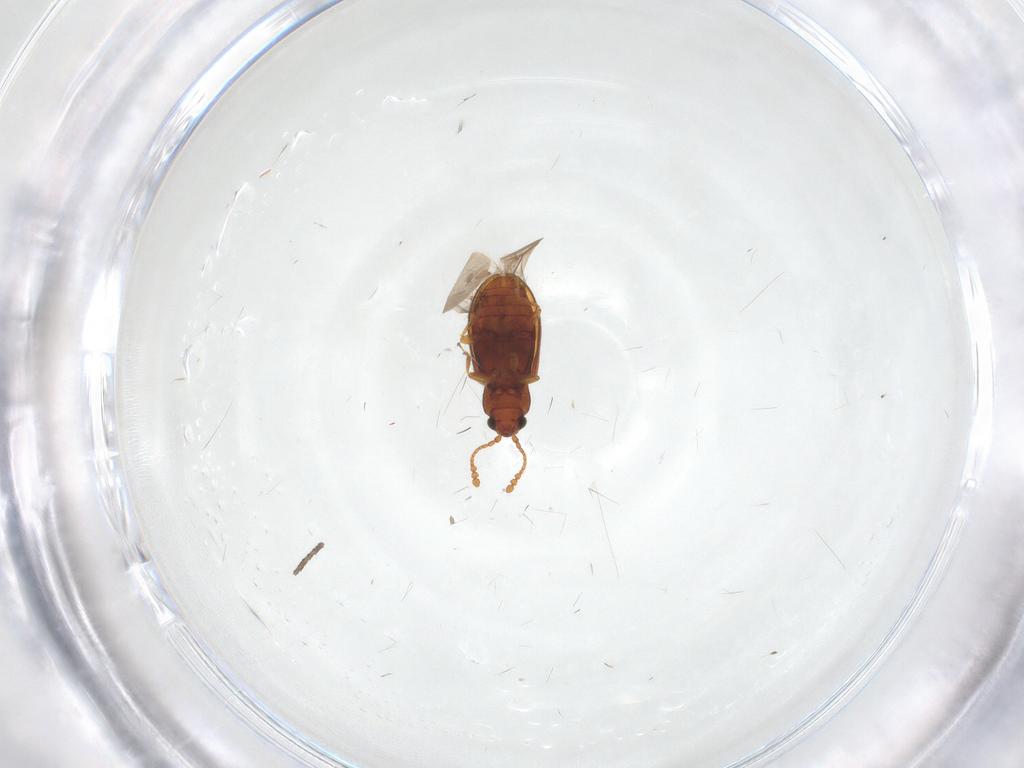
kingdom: Animalia
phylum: Arthropoda
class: Insecta
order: Coleoptera
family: Cryptophagidae
